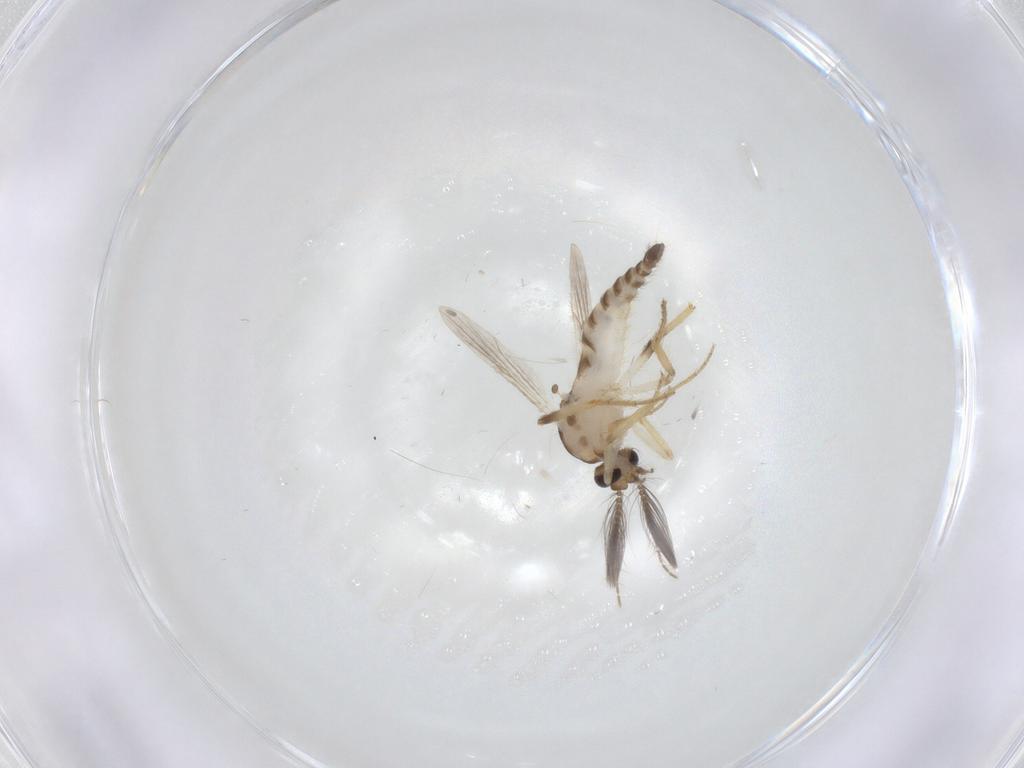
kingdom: Animalia
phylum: Arthropoda
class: Insecta
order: Diptera
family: Ceratopogonidae
